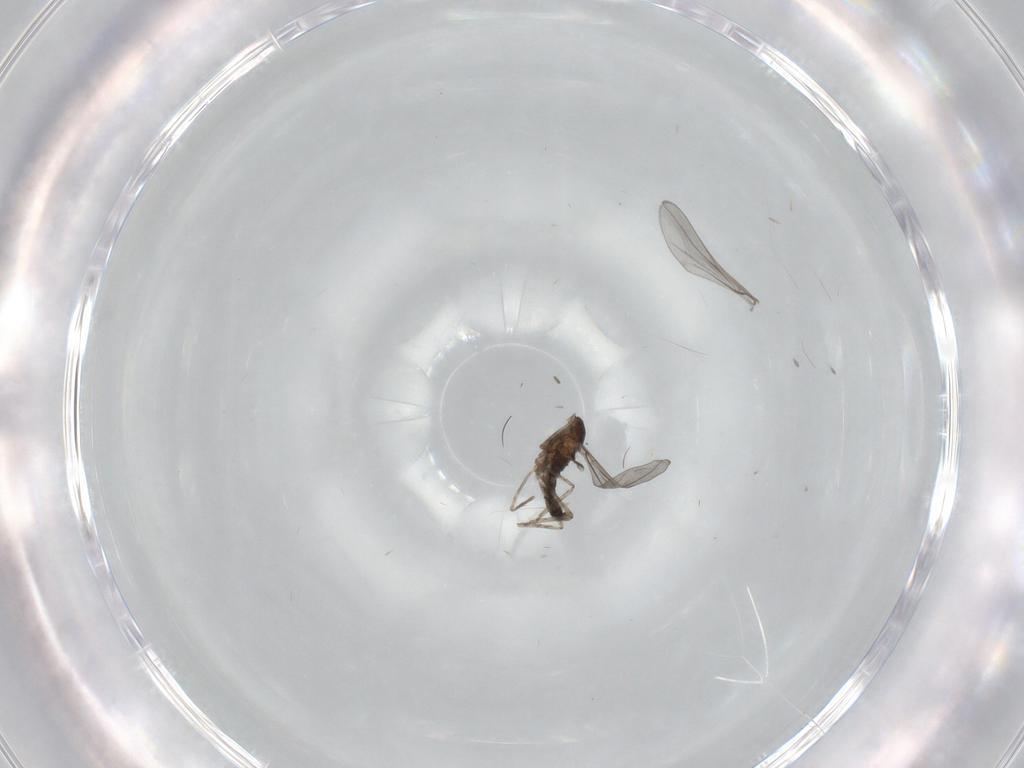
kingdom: Animalia
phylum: Arthropoda
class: Insecta
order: Diptera
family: Cecidomyiidae
